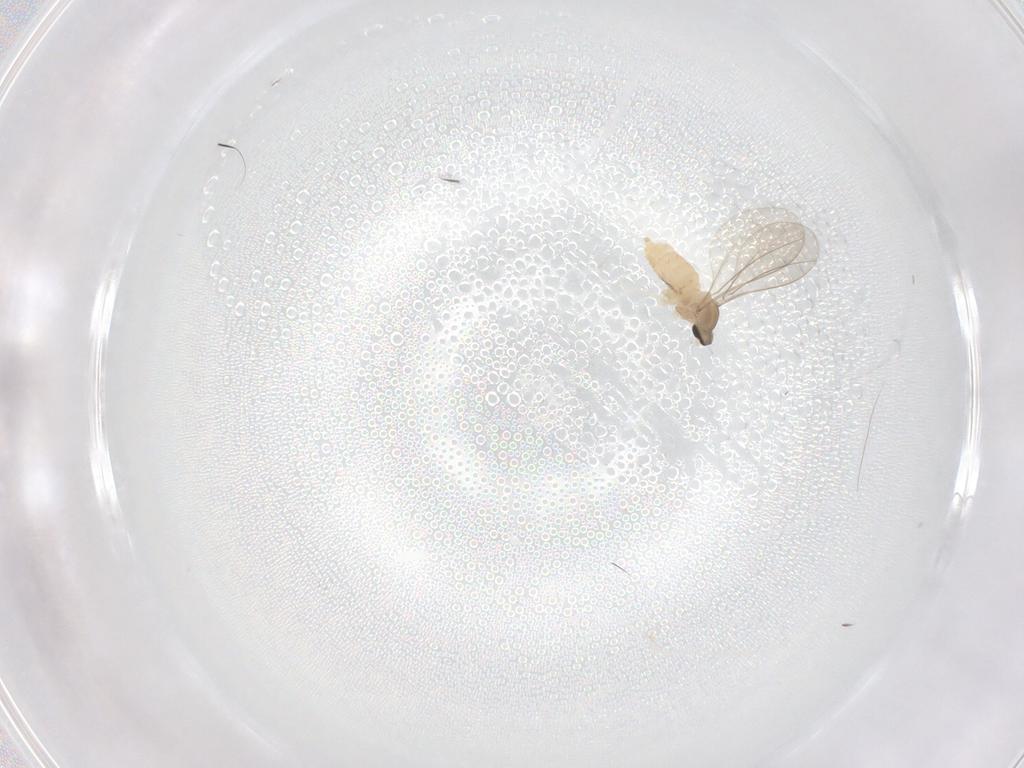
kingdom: Animalia
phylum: Arthropoda
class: Insecta
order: Diptera
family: Cecidomyiidae
